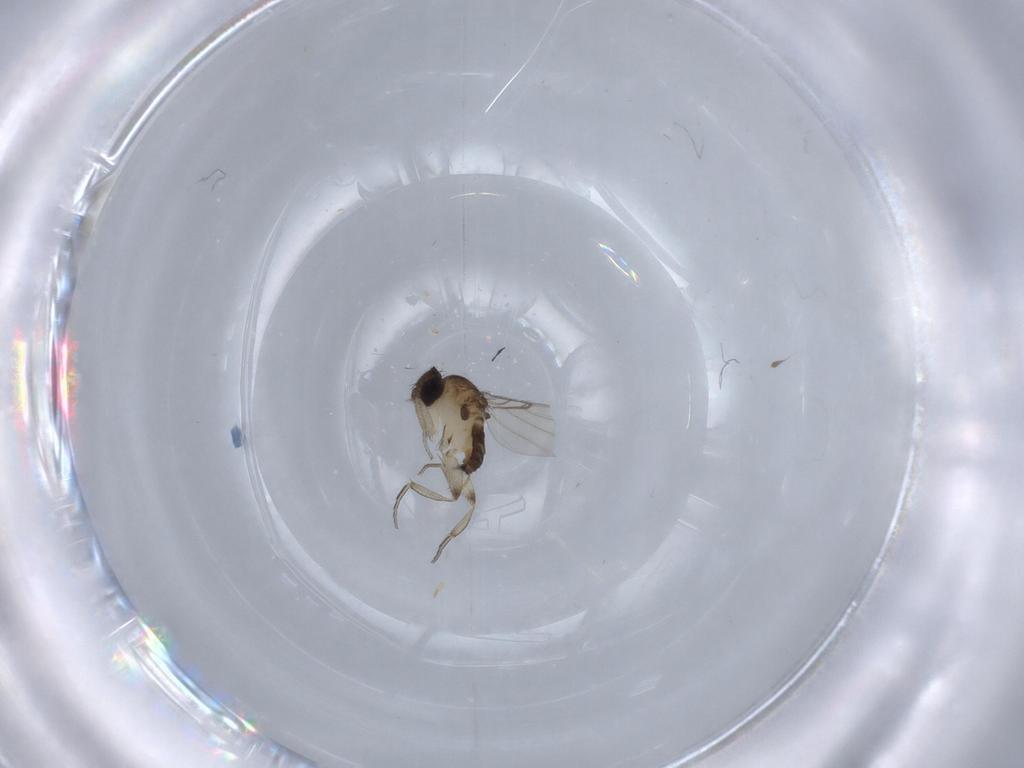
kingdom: Animalia
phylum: Arthropoda
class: Insecta
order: Diptera
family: Phoridae
